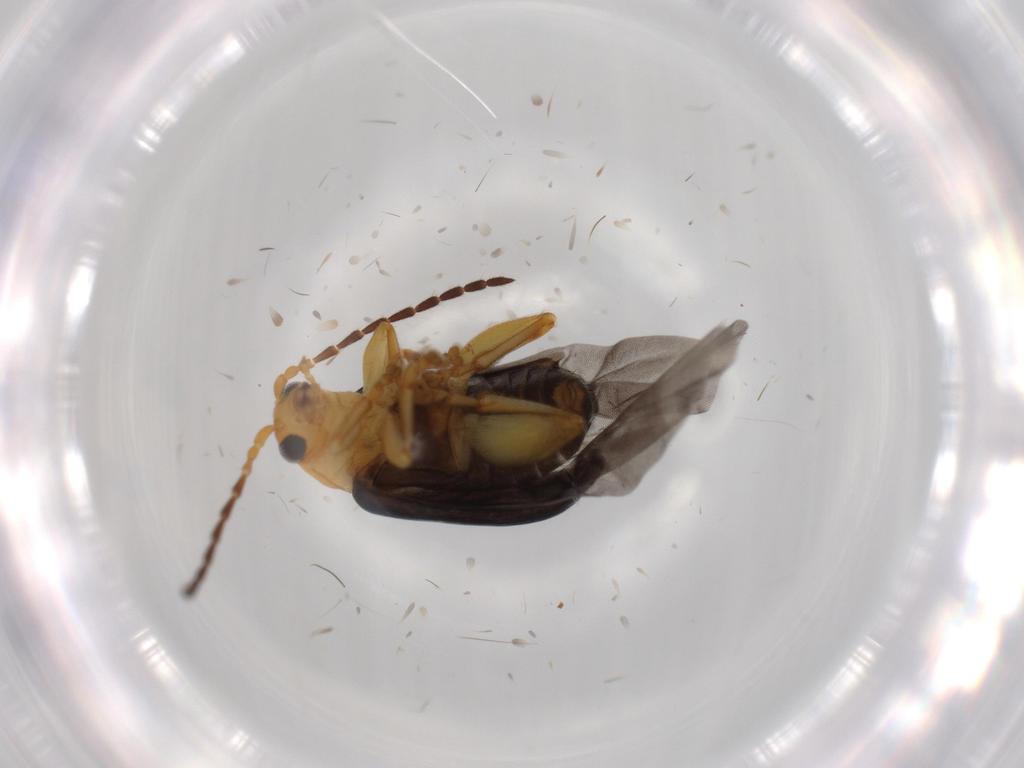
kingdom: Animalia
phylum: Arthropoda
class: Insecta
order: Coleoptera
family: Chrysomelidae
